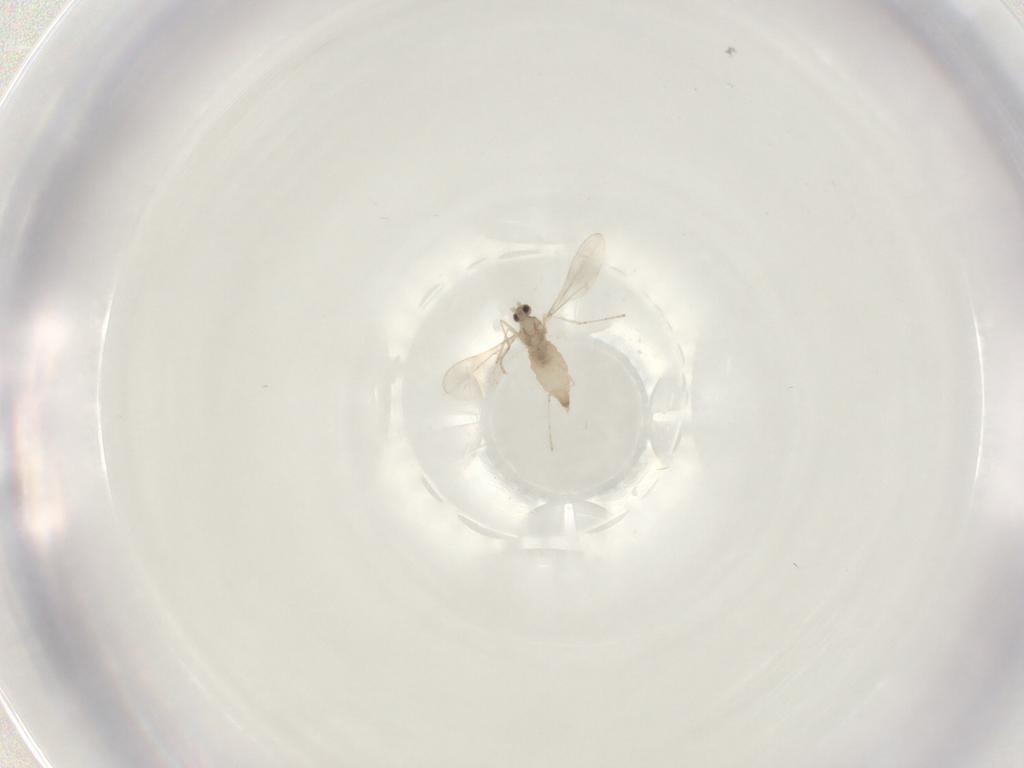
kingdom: Animalia
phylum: Arthropoda
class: Insecta
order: Diptera
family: Cecidomyiidae
